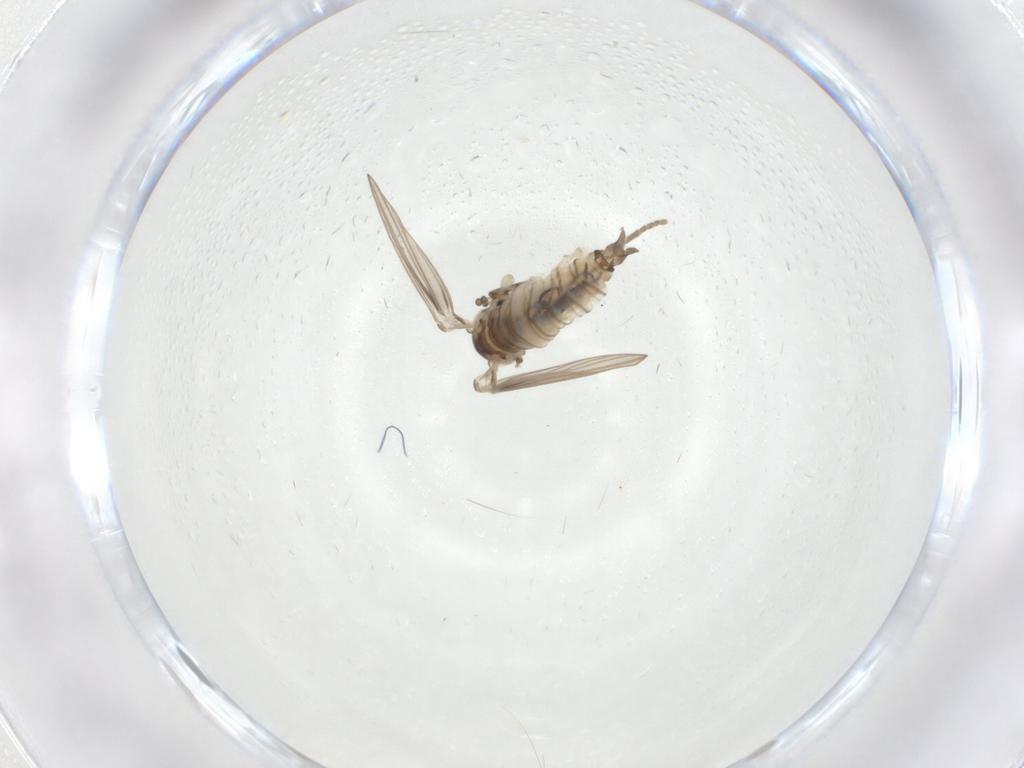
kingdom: Animalia
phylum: Arthropoda
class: Insecta
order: Diptera
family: Psychodidae
